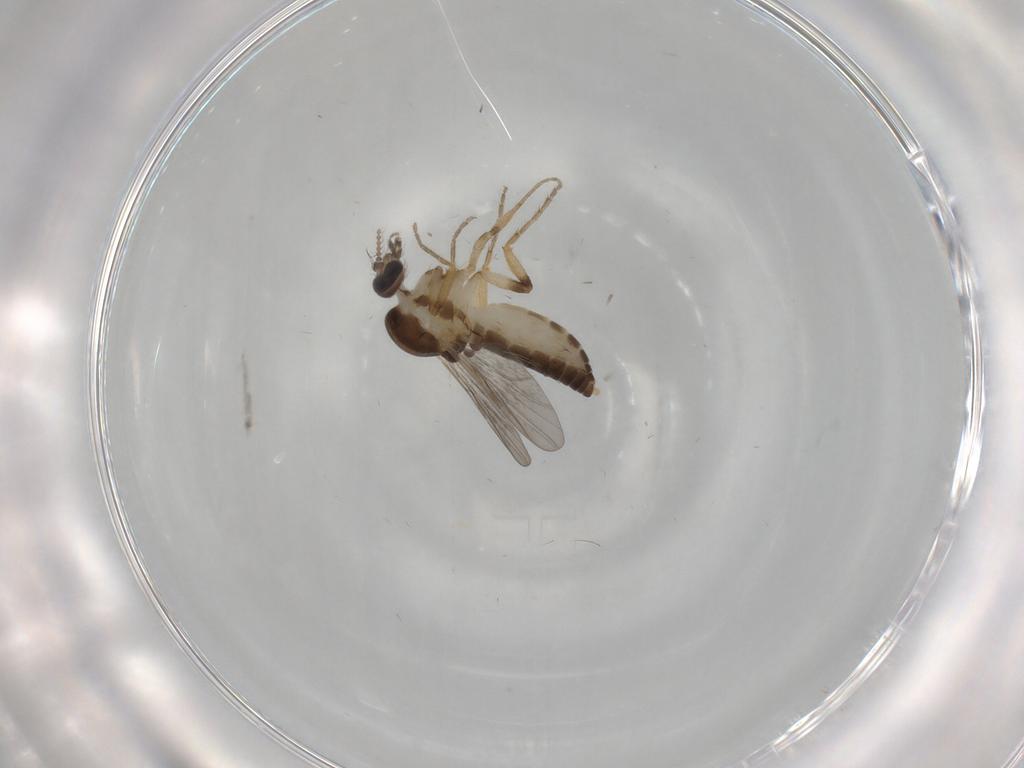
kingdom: Animalia
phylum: Arthropoda
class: Insecta
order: Diptera
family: Ceratopogonidae
